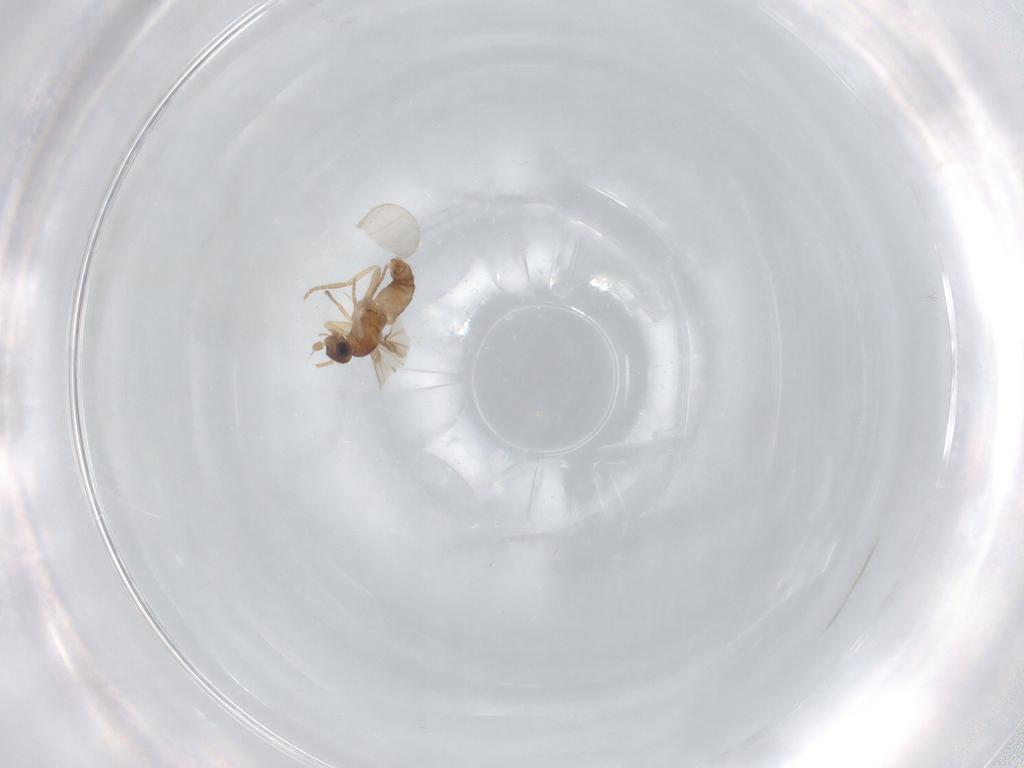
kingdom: Animalia
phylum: Arthropoda
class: Insecta
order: Diptera
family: Phoridae
